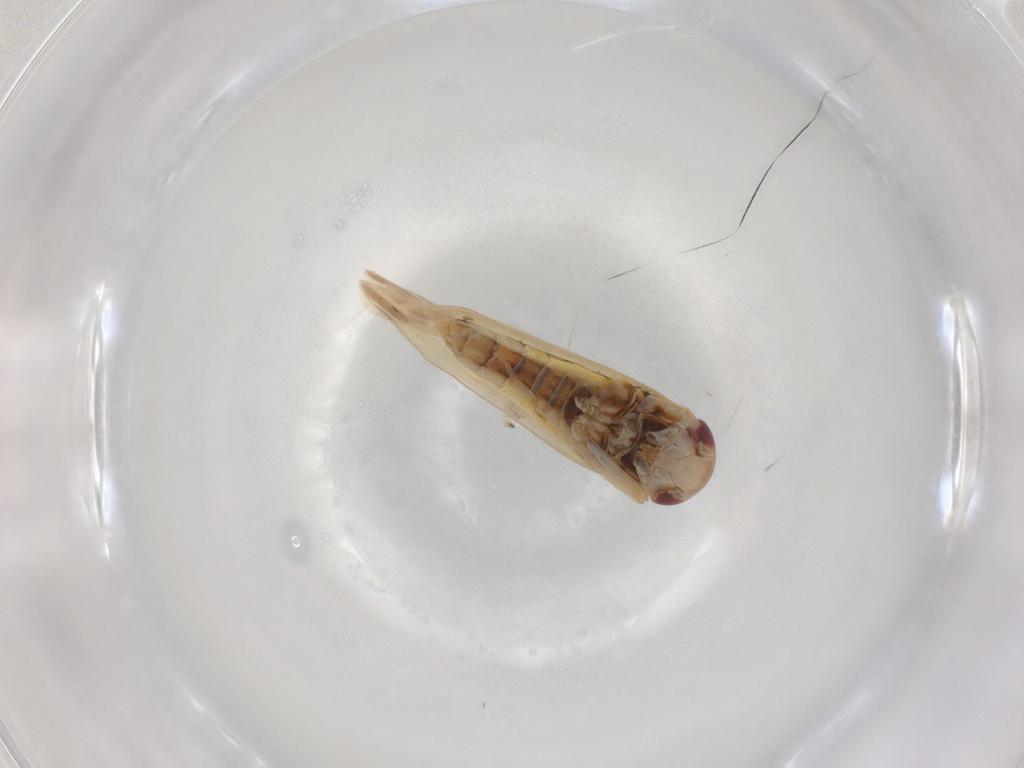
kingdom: Animalia
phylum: Arthropoda
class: Insecta
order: Hemiptera
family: Cicadellidae
